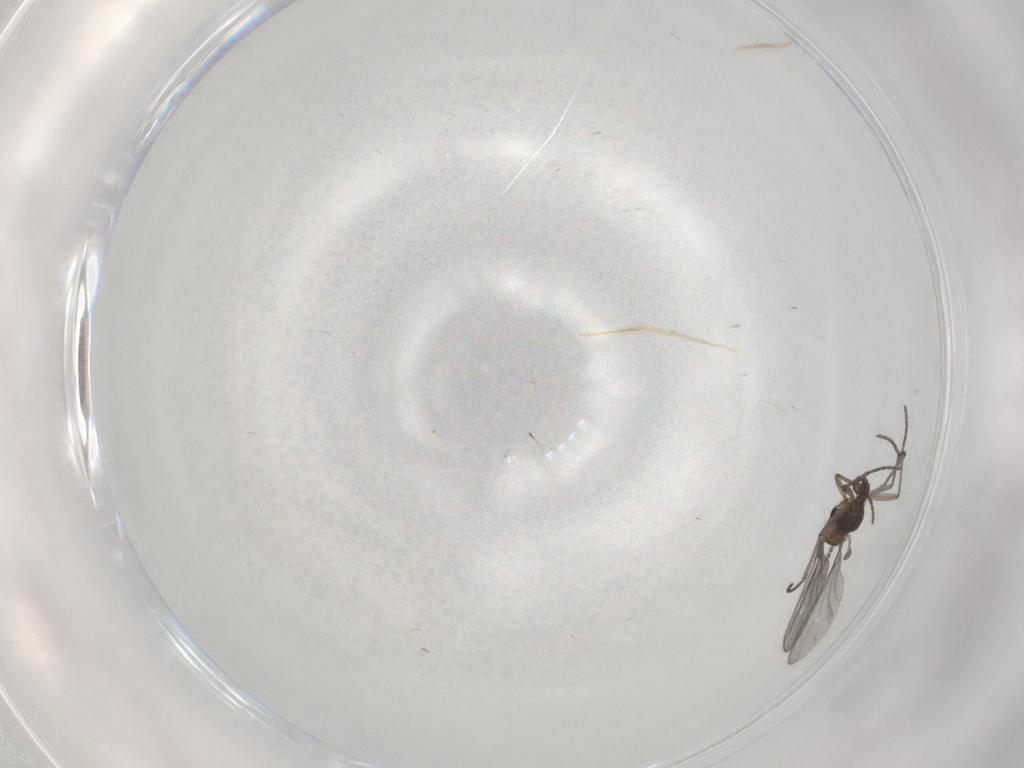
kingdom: Animalia
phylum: Arthropoda
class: Insecta
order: Diptera
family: Sciaridae
